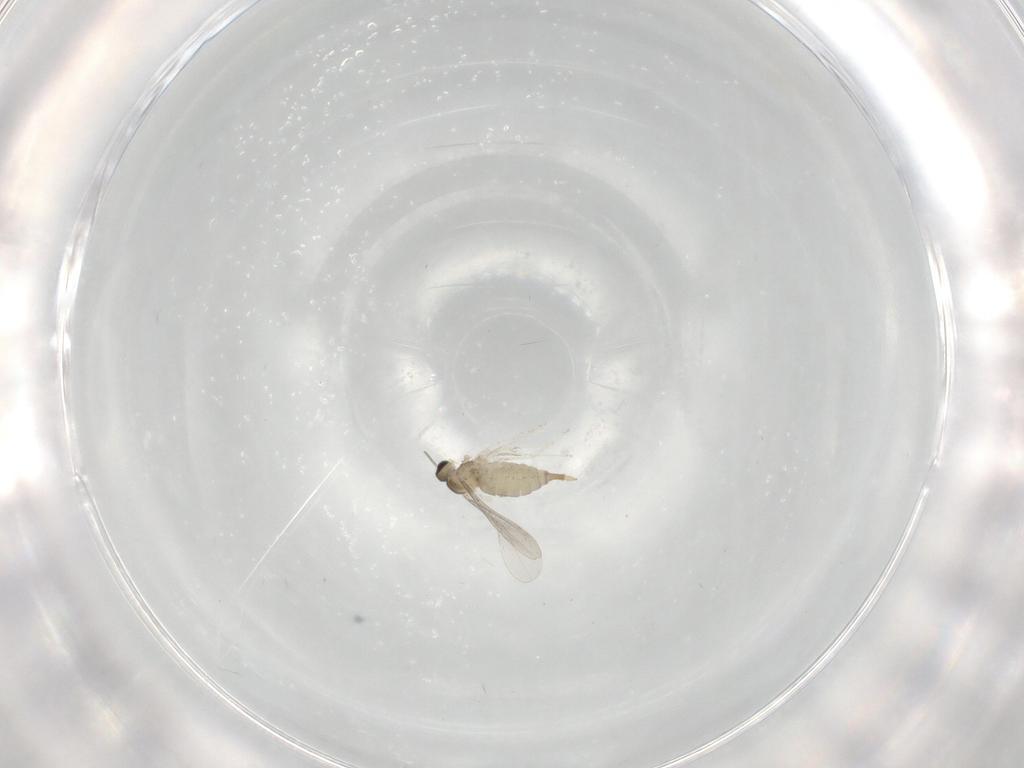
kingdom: Animalia
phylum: Arthropoda
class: Insecta
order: Diptera
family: Cecidomyiidae
